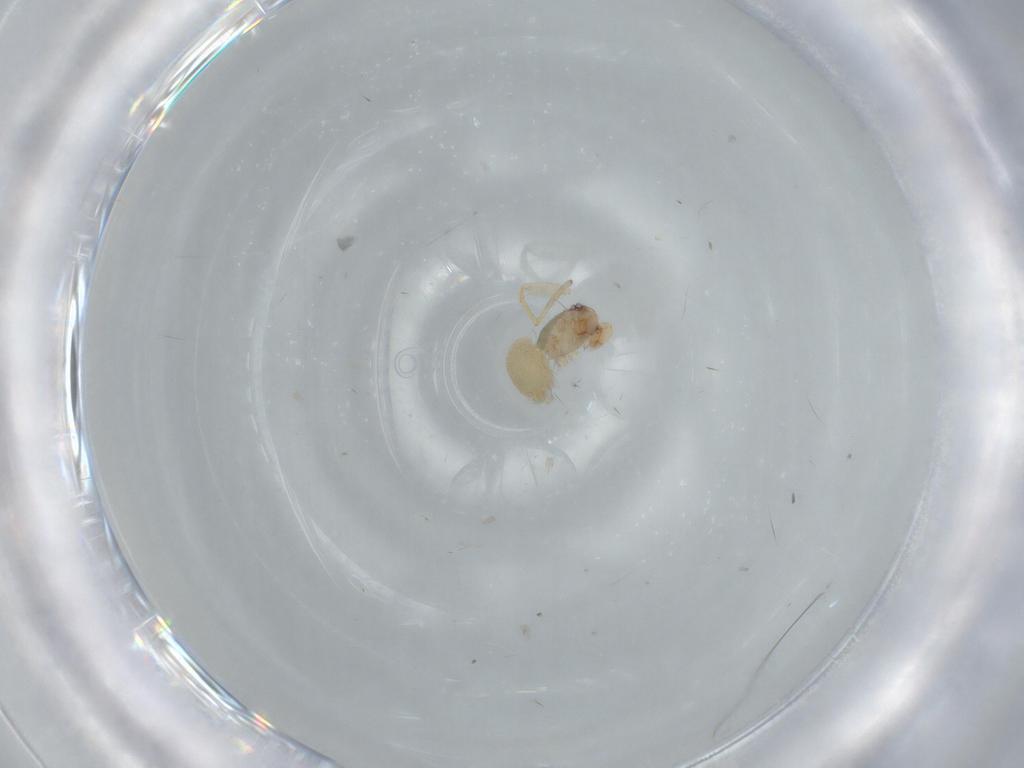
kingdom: Animalia
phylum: Arthropoda
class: Arachnida
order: Araneae
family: Oonopidae
